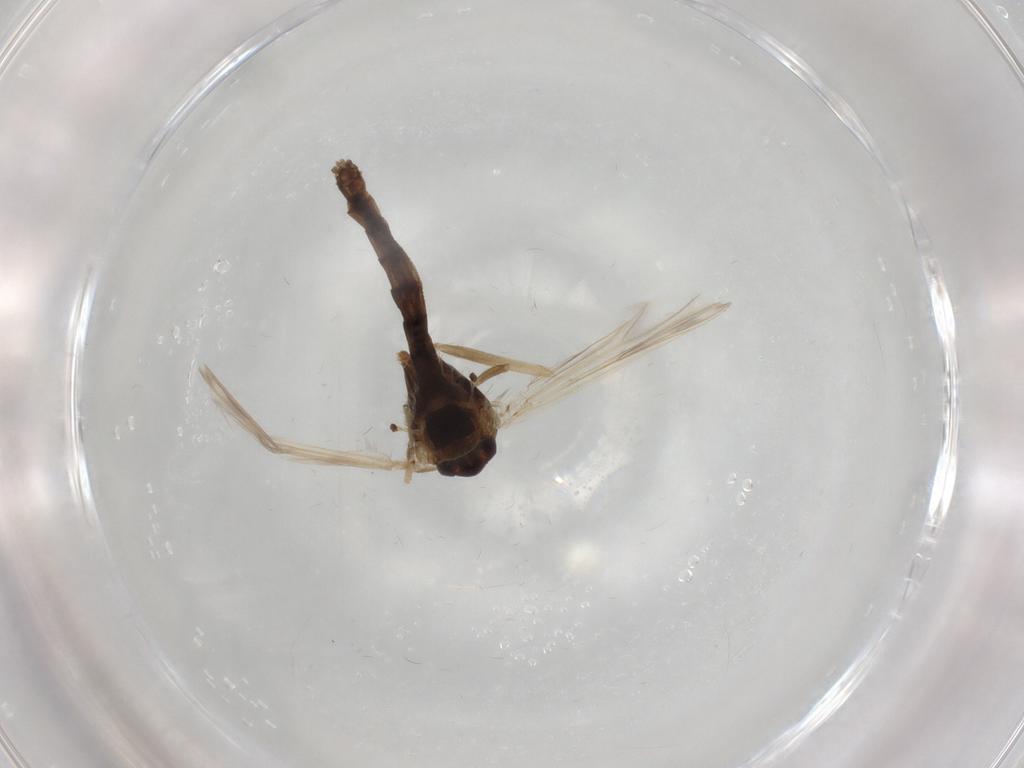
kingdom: Animalia
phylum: Arthropoda
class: Insecta
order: Diptera
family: Chironomidae
